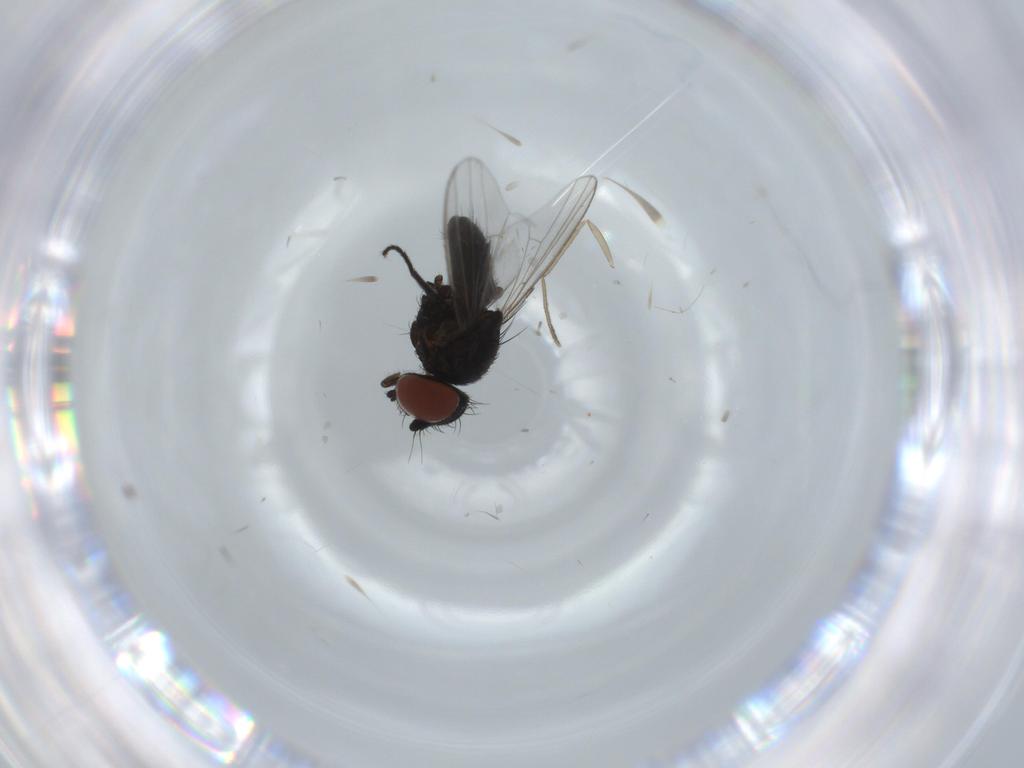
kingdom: Animalia
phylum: Arthropoda
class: Insecta
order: Diptera
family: Milichiidae
